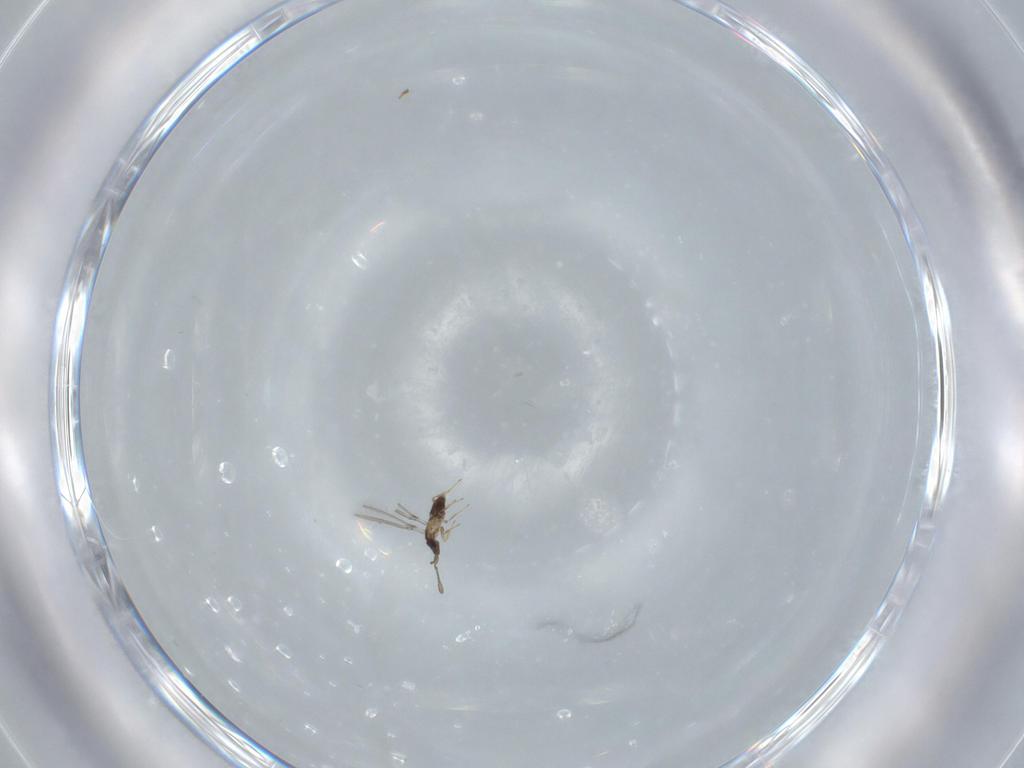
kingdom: Animalia
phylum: Arthropoda
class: Insecta
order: Hymenoptera
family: Mymaridae
